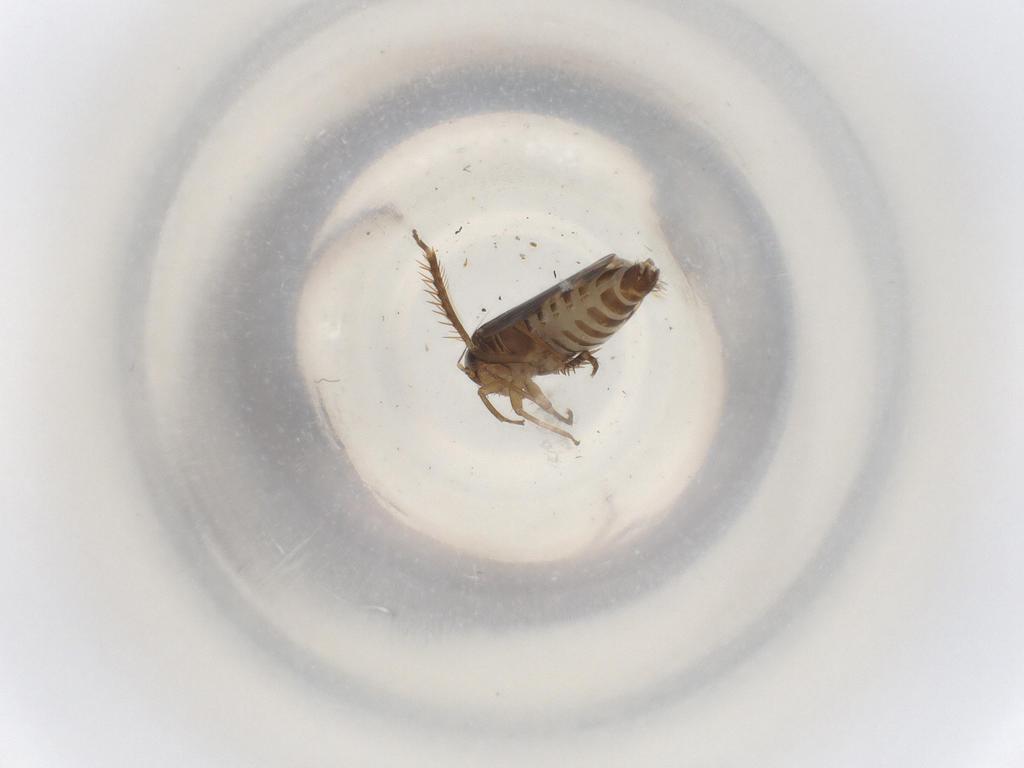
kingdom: Animalia
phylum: Arthropoda
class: Insecta
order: Hemiptera
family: Cicadellidae
